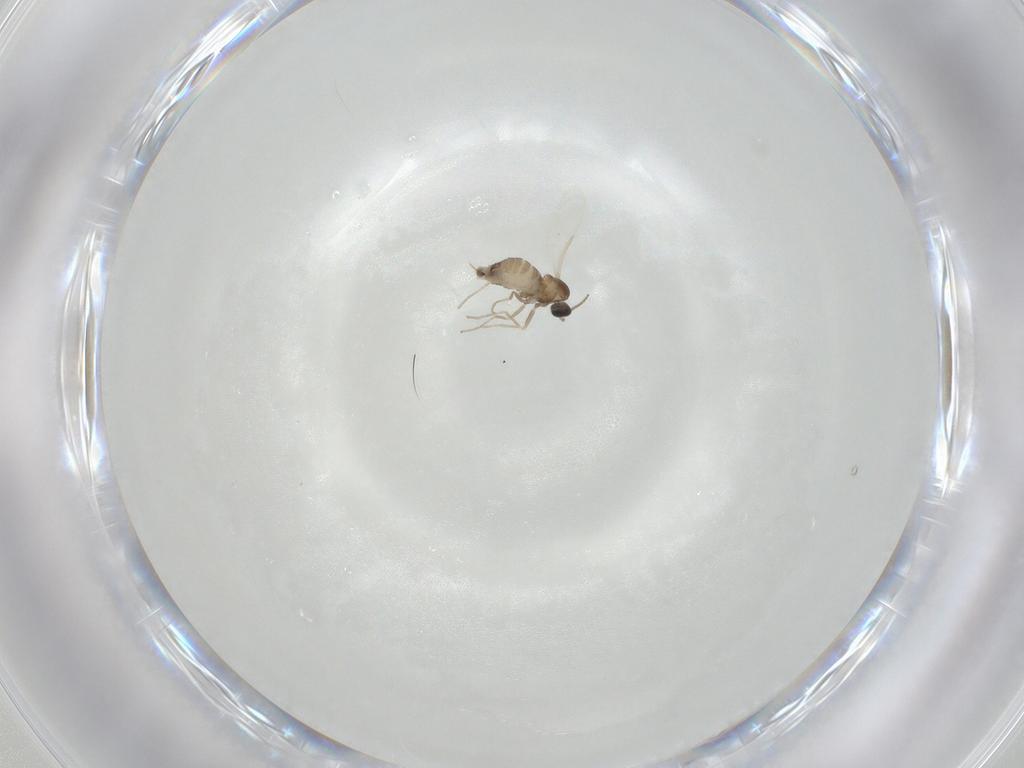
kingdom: Animalia
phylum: Arthropoda
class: Insecta
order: Diptera
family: Cecidomyiidae
